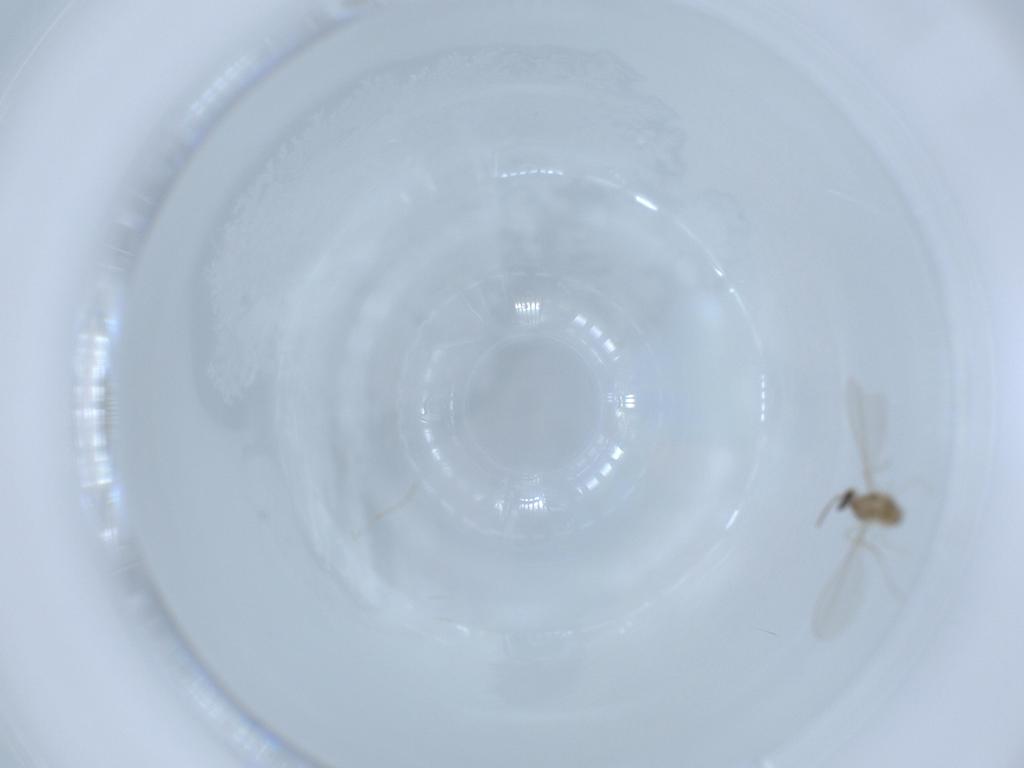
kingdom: Animalia
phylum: Arthropoda
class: Insecta
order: Diptera
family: Cecidomyiidae
